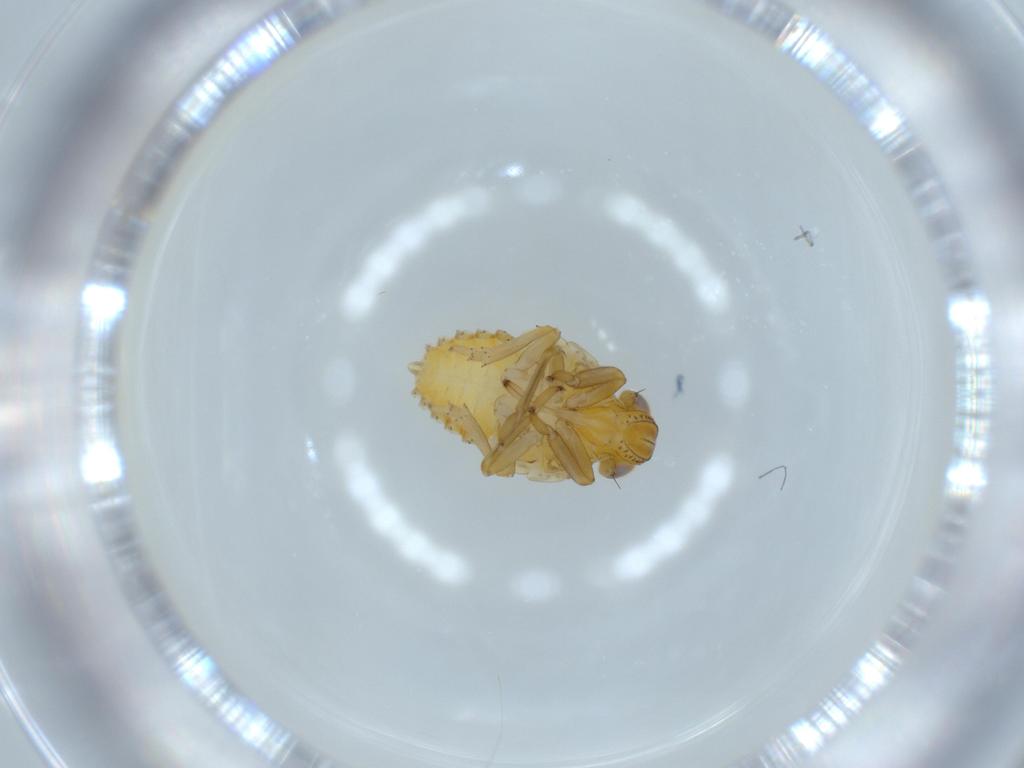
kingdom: Animalia
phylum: Arthropoda
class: Insecta
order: Hemiptera
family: Issidae
